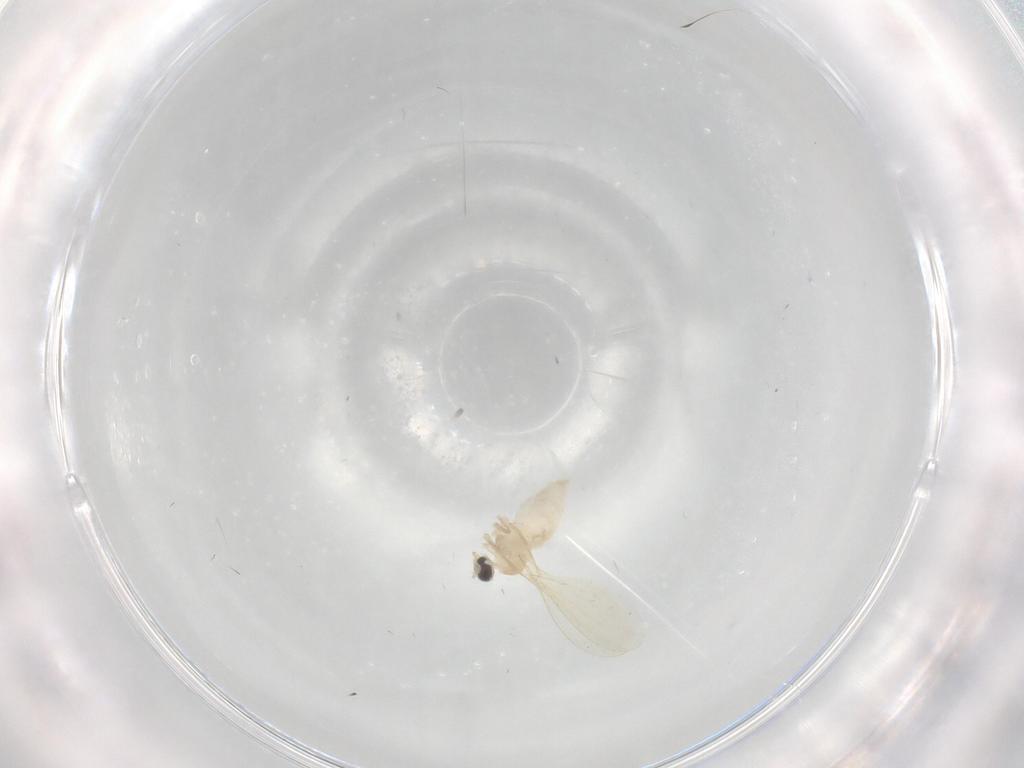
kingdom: Animalia
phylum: Arthropoda
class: Insecta
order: Diptera
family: Cecidomyiidae
